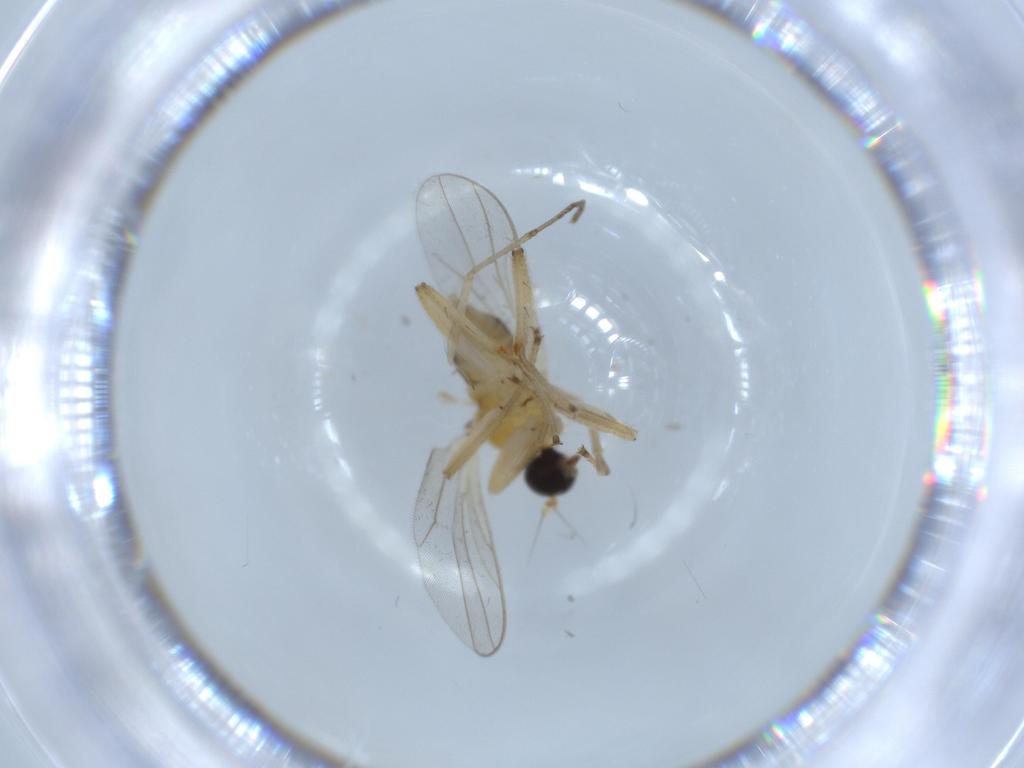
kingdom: Animalia
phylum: Arthropoda
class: Insecta
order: Diptera
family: Hybotidae
